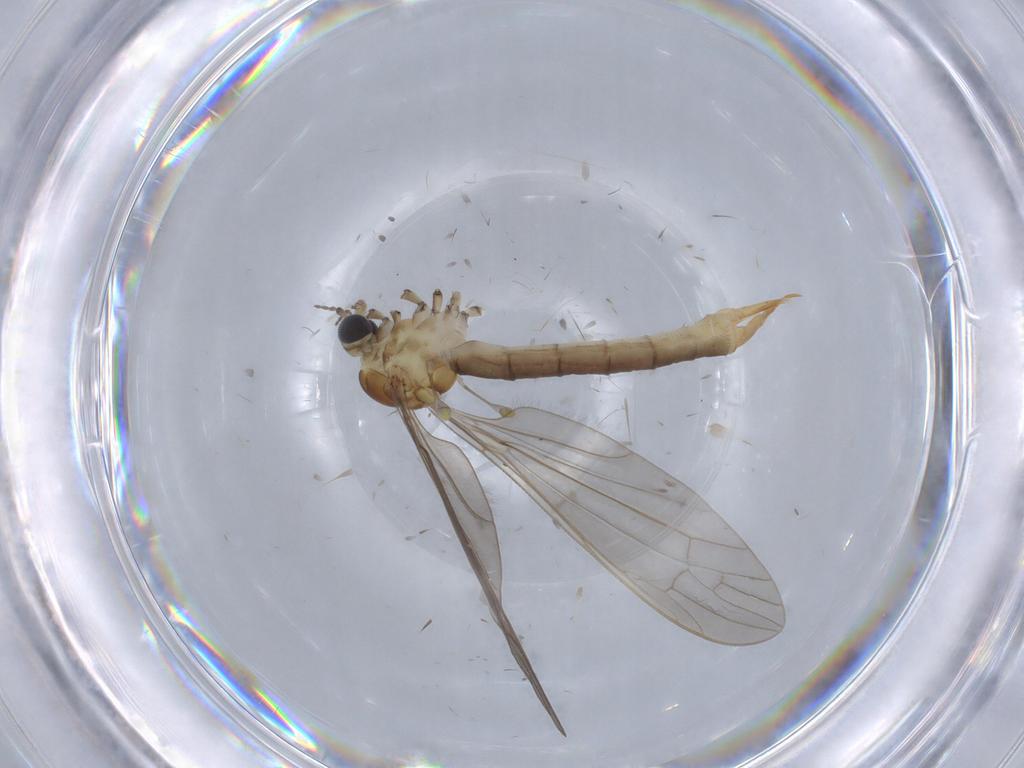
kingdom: Animalia
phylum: Arthropoda
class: Insecta
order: Diptera
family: Limoniidae
